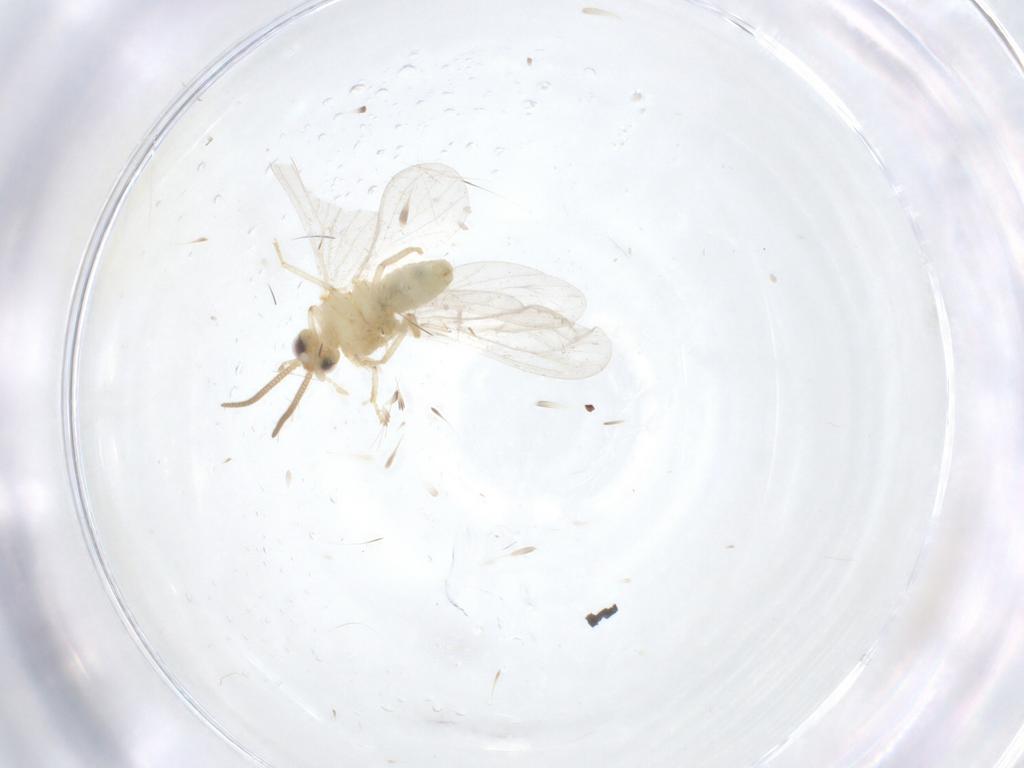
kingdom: Animalia
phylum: Arthropoda
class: Insecta
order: Neuroptera
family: Coniopterygidae
